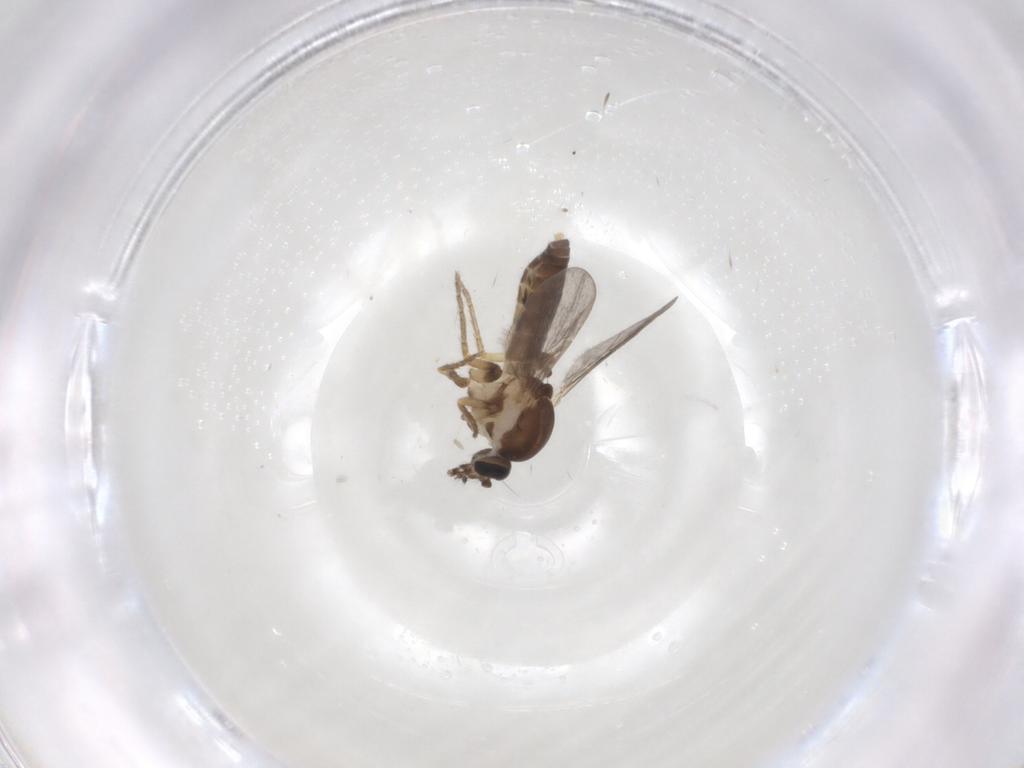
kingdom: Animalia
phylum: Arthropoda
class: Insecta
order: Diptera
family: Ceratopogonidae
